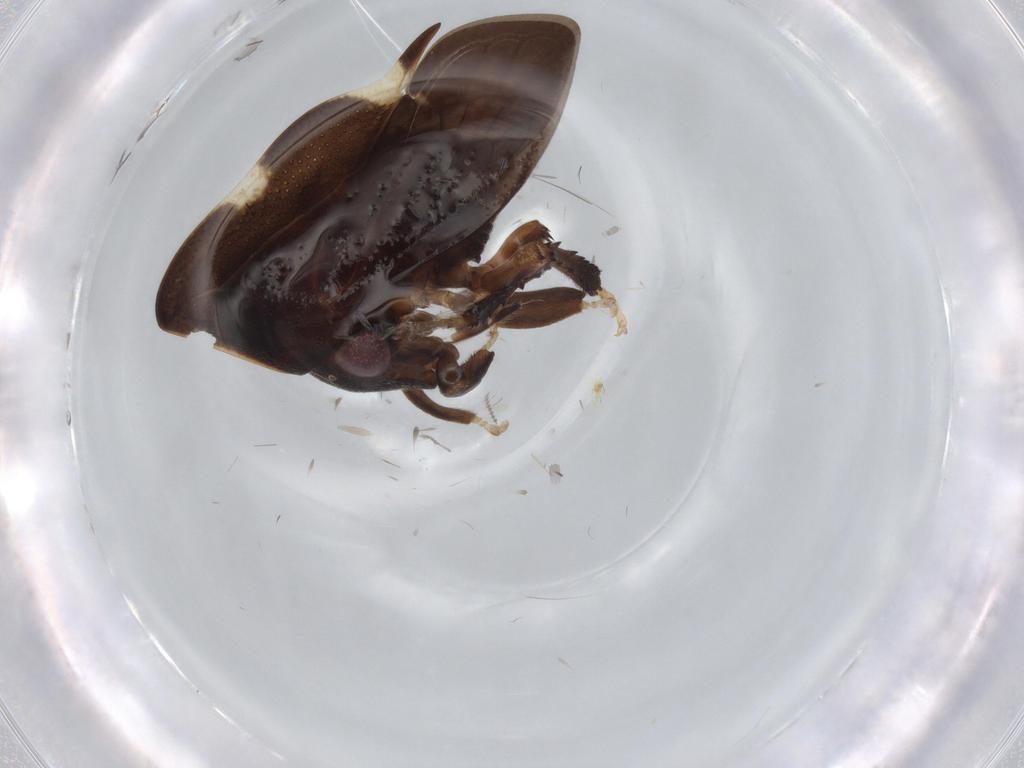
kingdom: Animalia
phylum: Arthropoda
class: Insecta
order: Hemiptera
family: Membracidae
